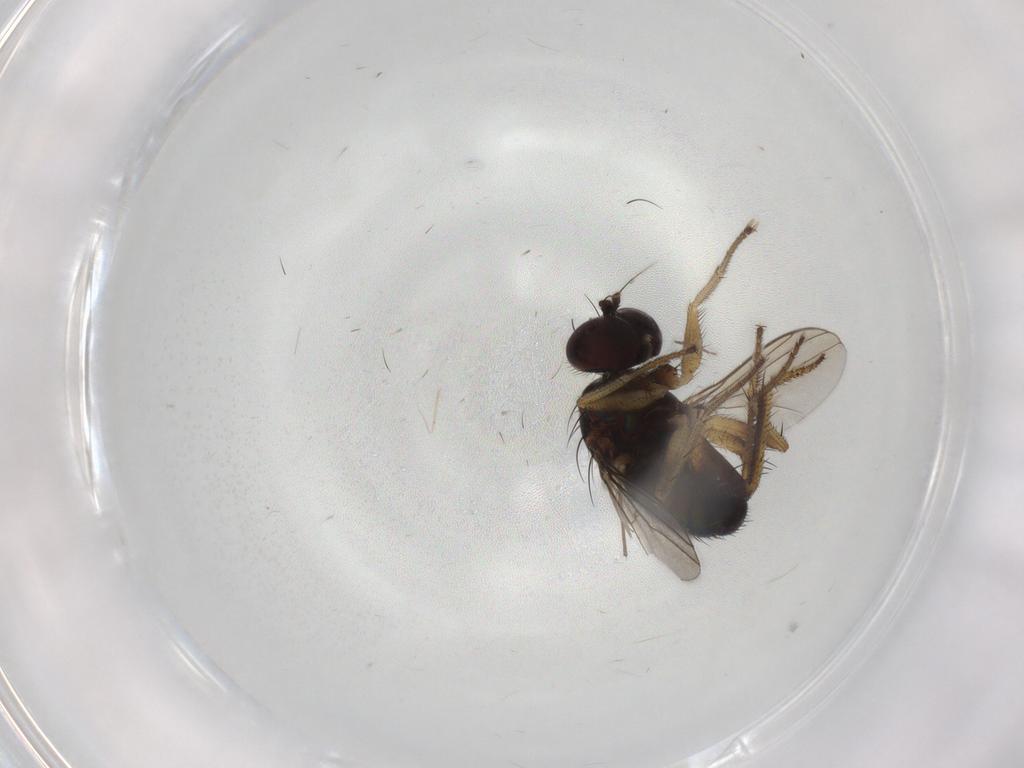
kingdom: Animalia
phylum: Arthropoda
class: Insecta
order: Diptera
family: Dolichopodidae
